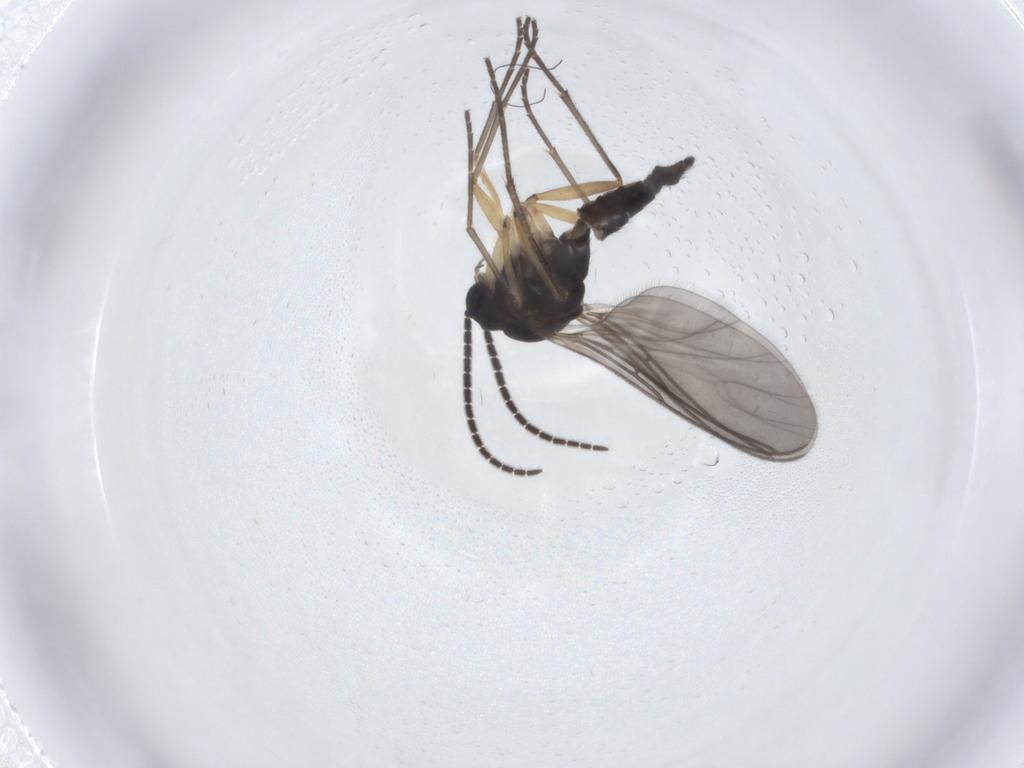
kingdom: Animalia
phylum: Arthropoda
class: Insecta
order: Diptera
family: Sciaridae
